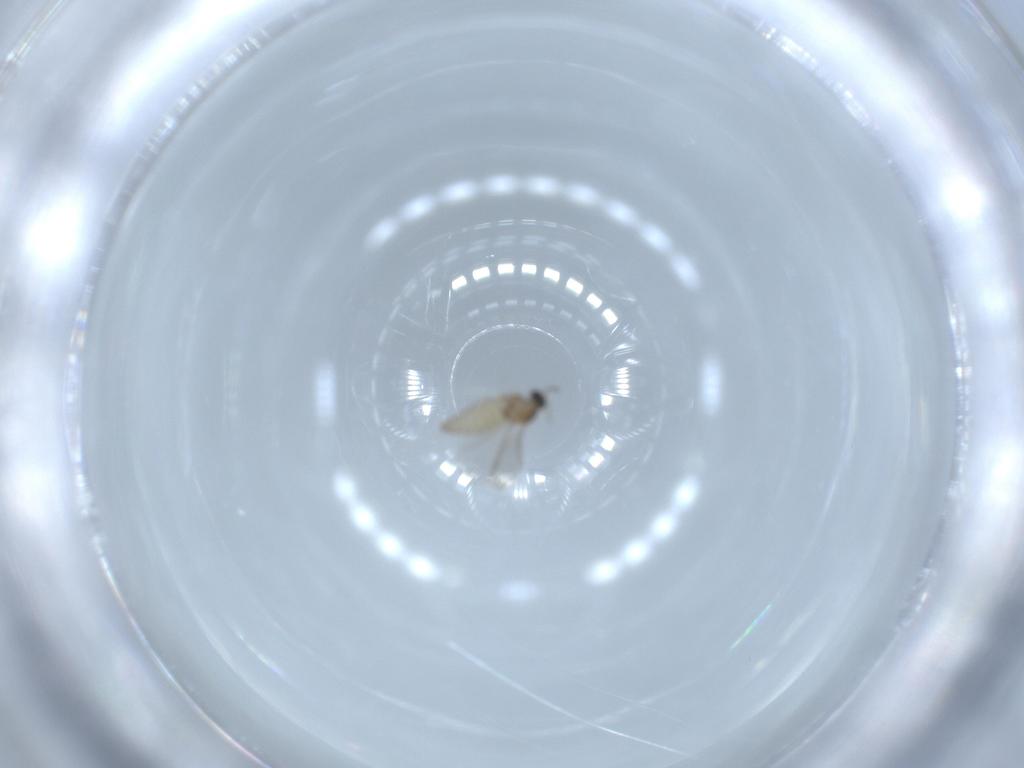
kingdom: Animalia
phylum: Arthropoda
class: Insecta
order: Diptera
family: Cecidomyiidae
